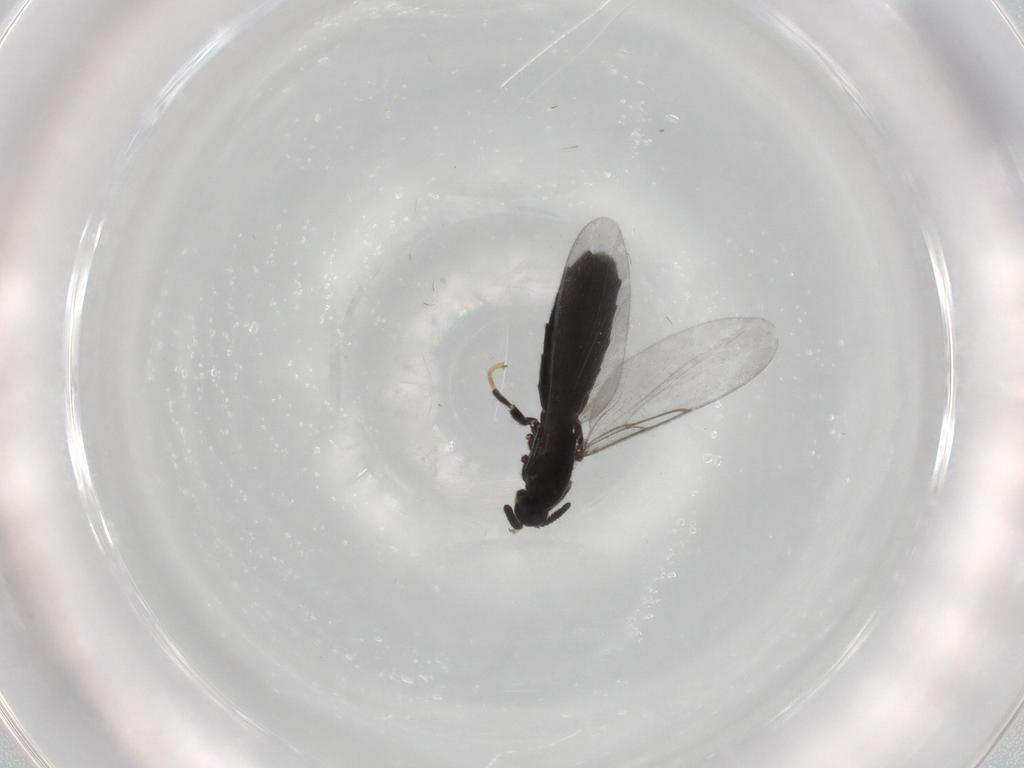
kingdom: Animalia
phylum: Arthropoda
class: Insecta
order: Diptera
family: Scatopsidae
